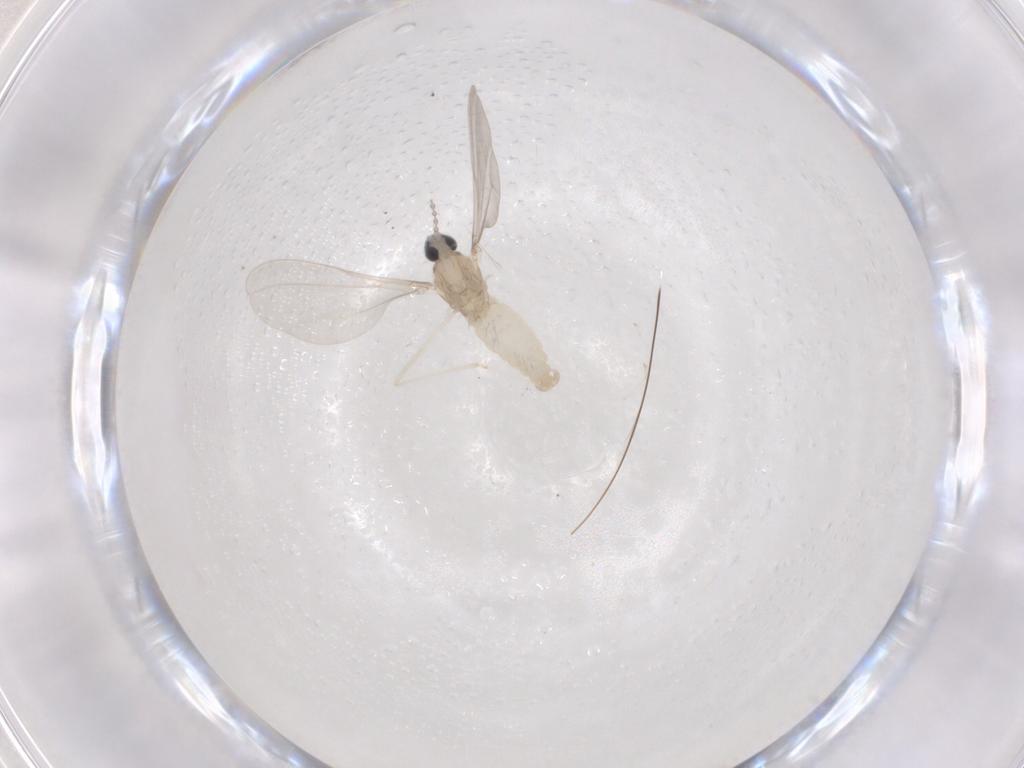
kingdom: Animalia
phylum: Arthropoda
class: Insecta
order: Diptera
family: Cecidomyiidae
